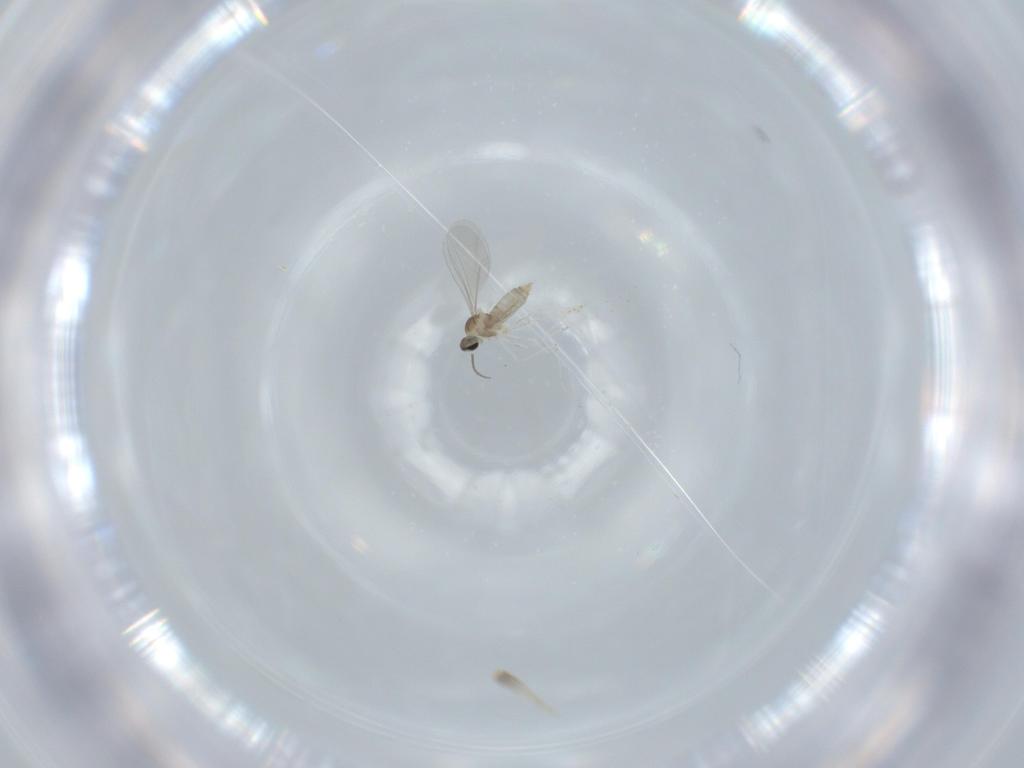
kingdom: Animalia
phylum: Arthropoda
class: Insecta
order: Diptera
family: Cecidomyiidae
